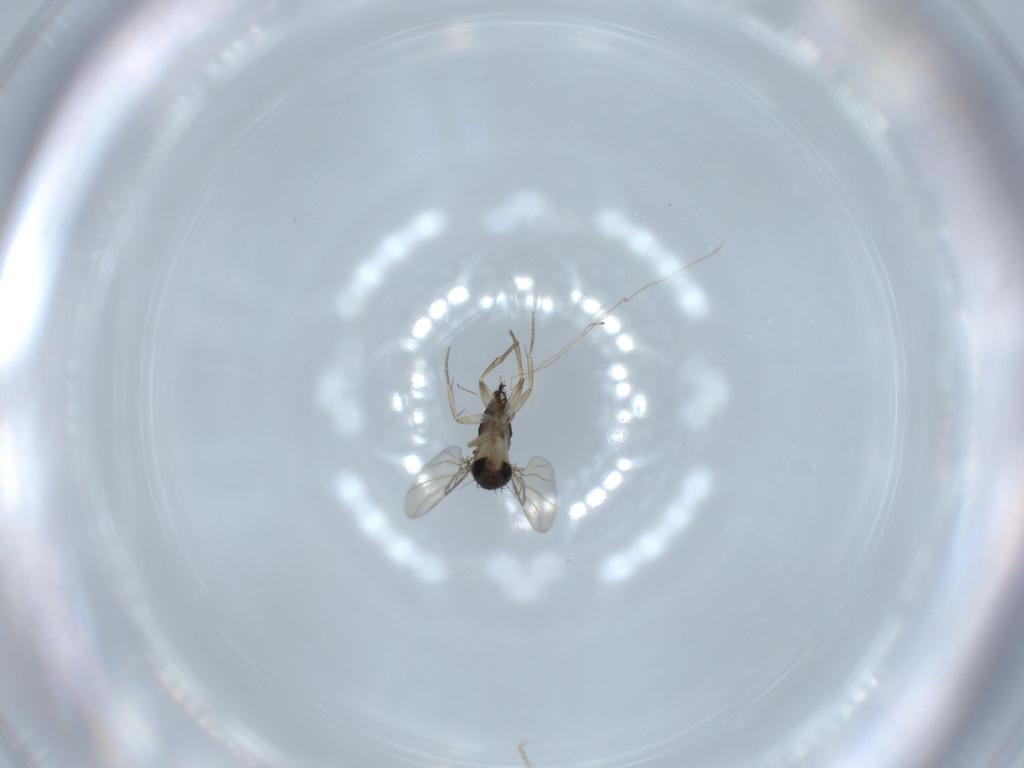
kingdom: Animalia
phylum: Arthropoda
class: Insecta
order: Diptera
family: Phoridae
